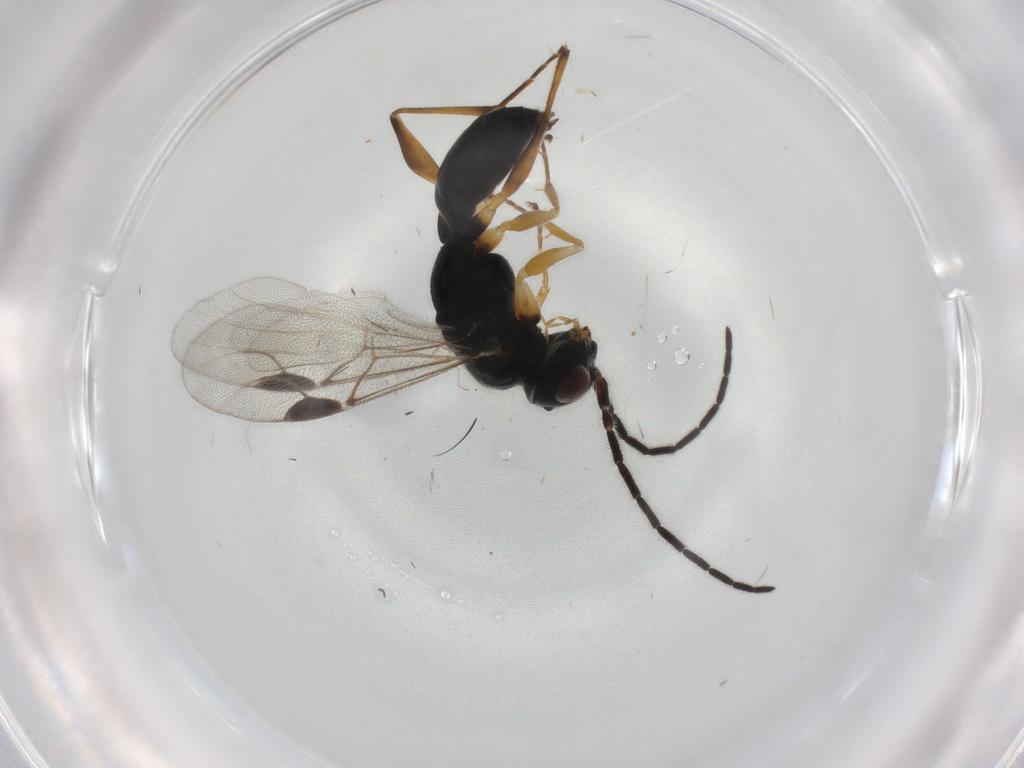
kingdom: Animalia
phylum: Arthropoda
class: Insecta
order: Hymenoptera
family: Dryinidae
